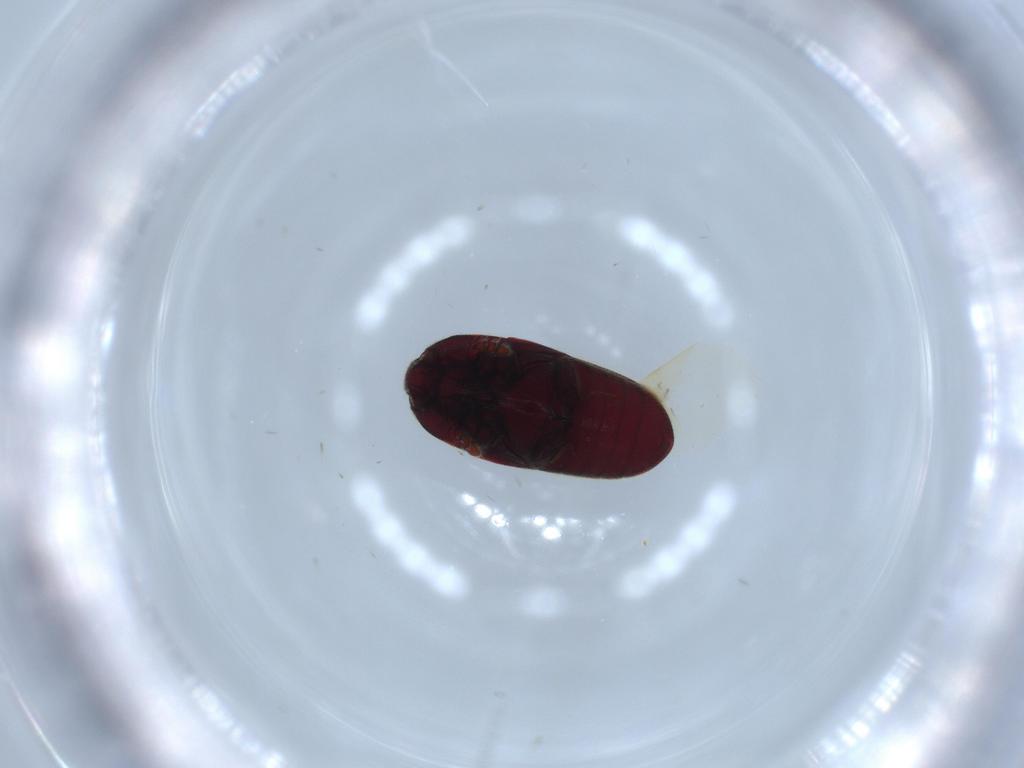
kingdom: Animalia
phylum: Arthropoda
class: Insecta
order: Coleoptera
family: Throscidae
